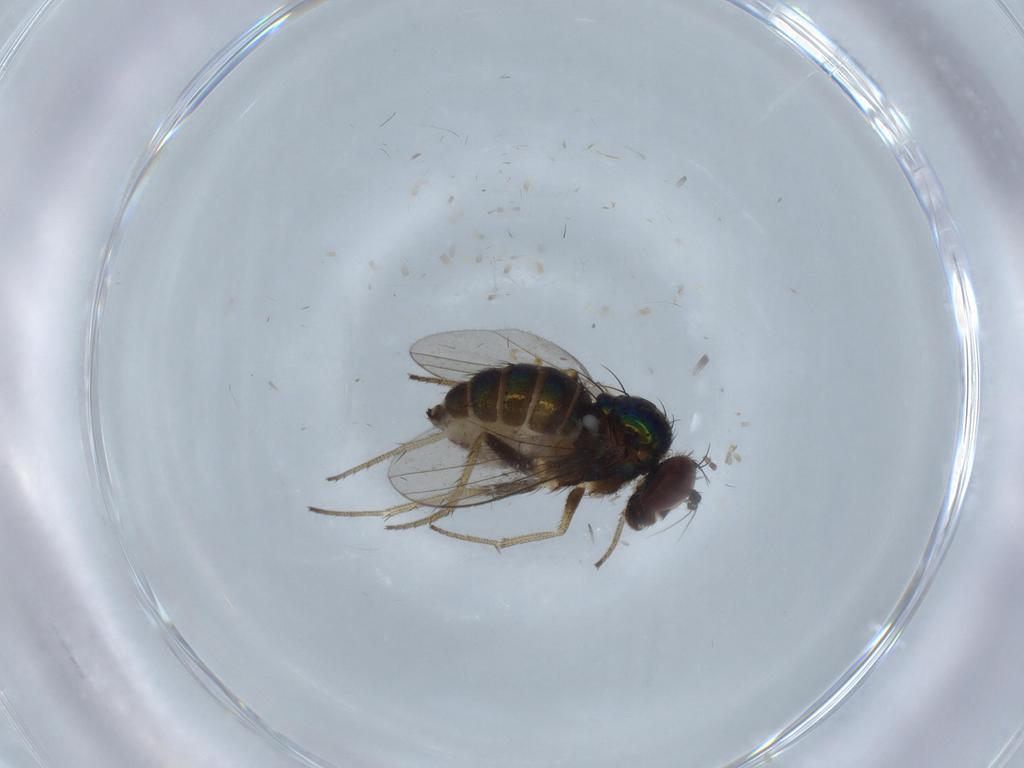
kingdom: Animalia
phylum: Arthropoda
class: Insecta
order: Diptera
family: Sciaridae
